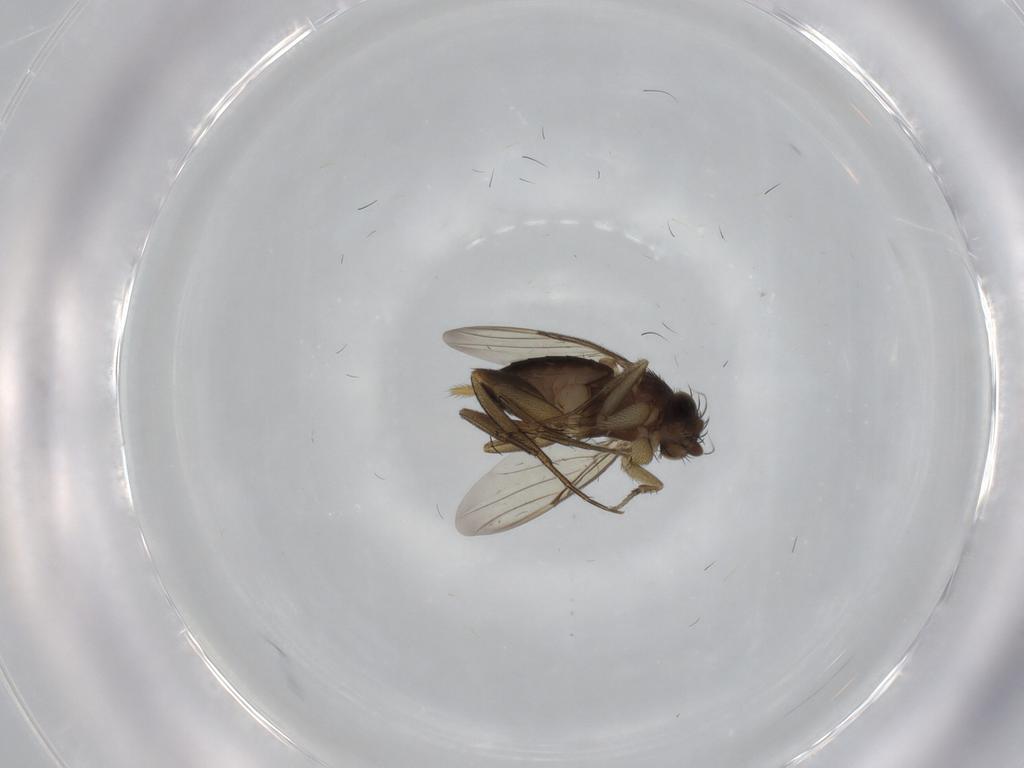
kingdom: Animalia
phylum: Arthropoda
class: Insecta
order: Diptera
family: Phoridae
